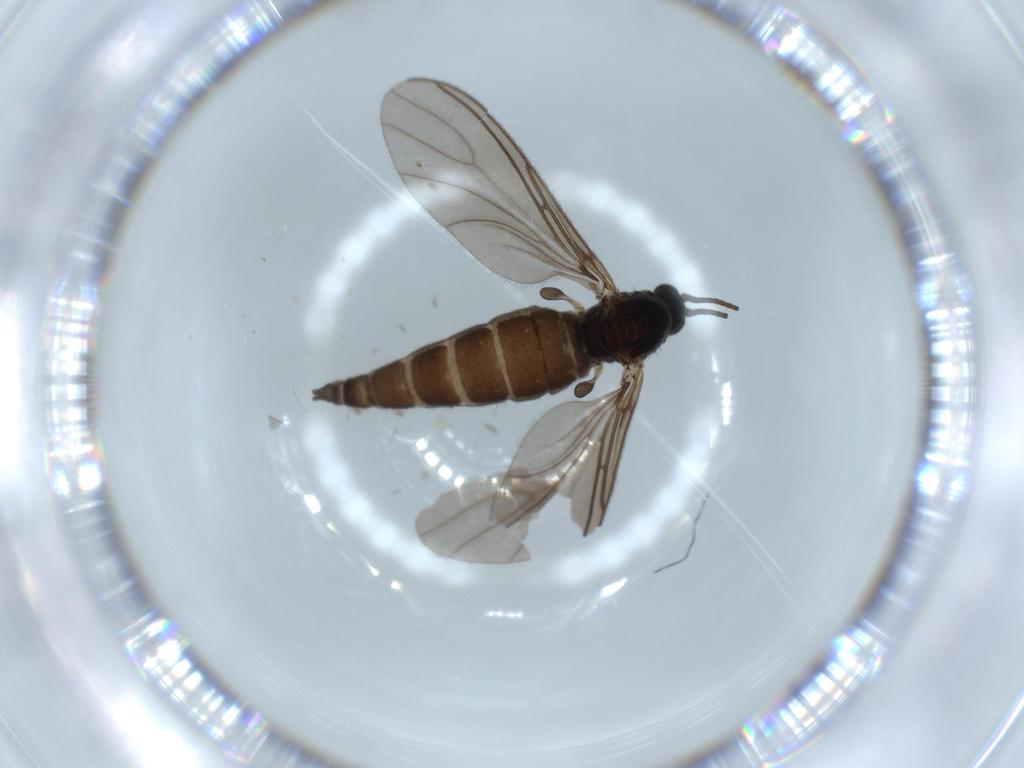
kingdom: Animalia
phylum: Arthropoda
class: Insecta
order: Diptera
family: Sciaridae
